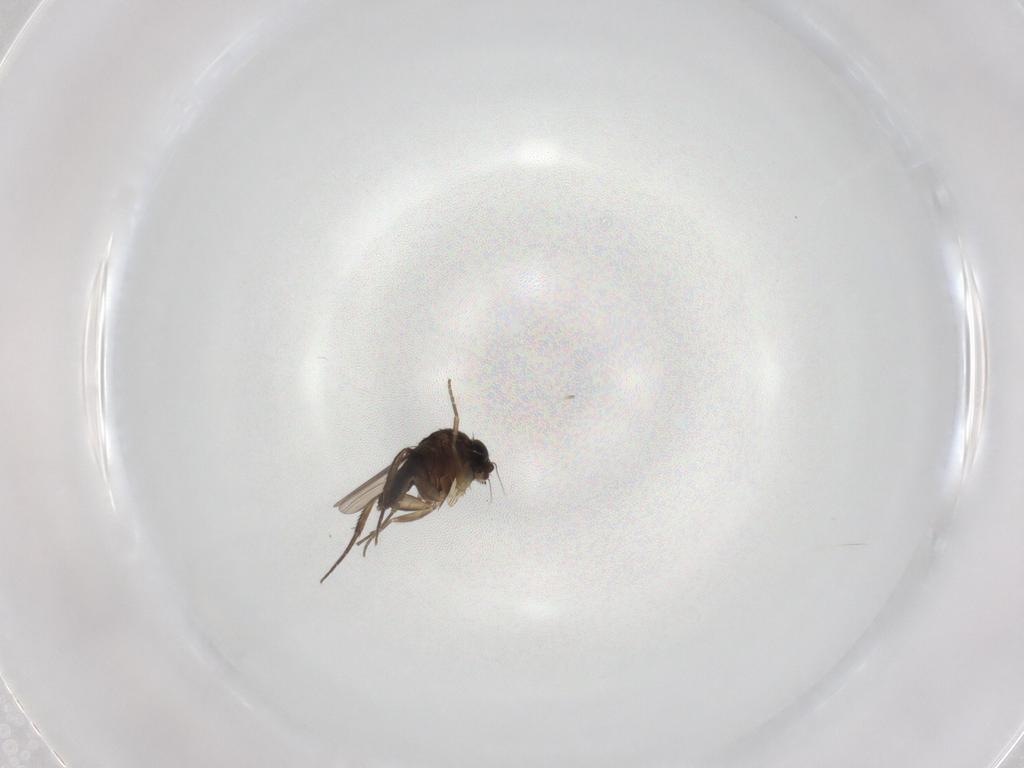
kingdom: Animalia
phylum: Arthropoda
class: Insecta
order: Diptera
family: Phoridae
